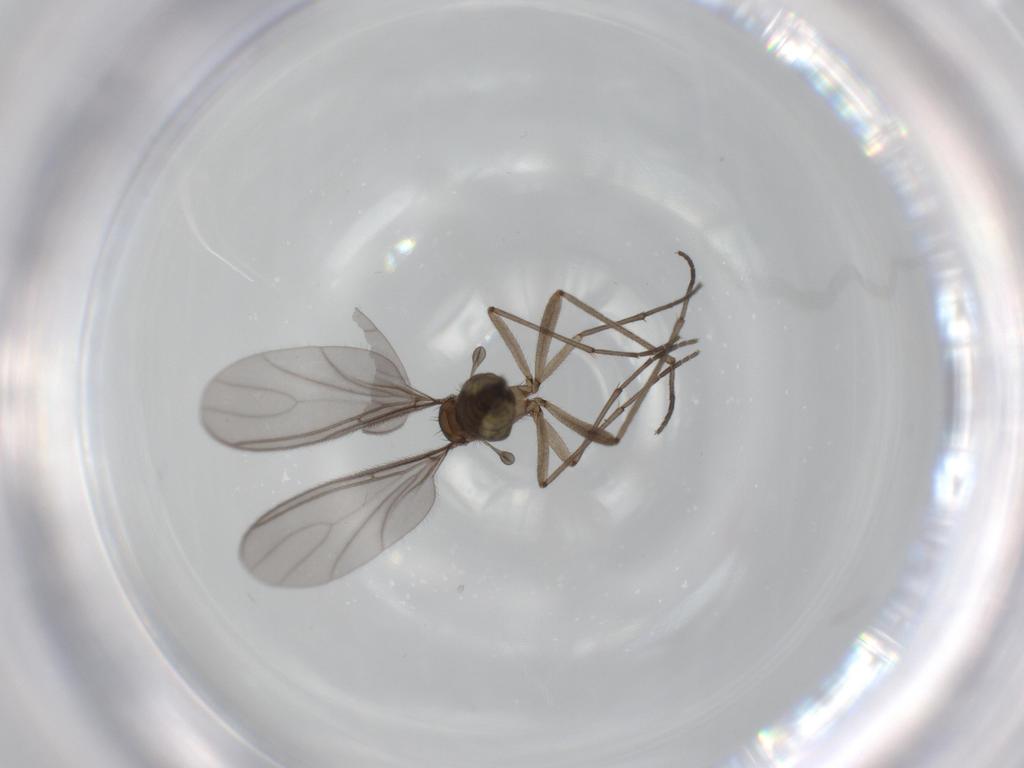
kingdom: Animalia
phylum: Arthropoda
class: Insecta
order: Diptera
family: Sciaridae
